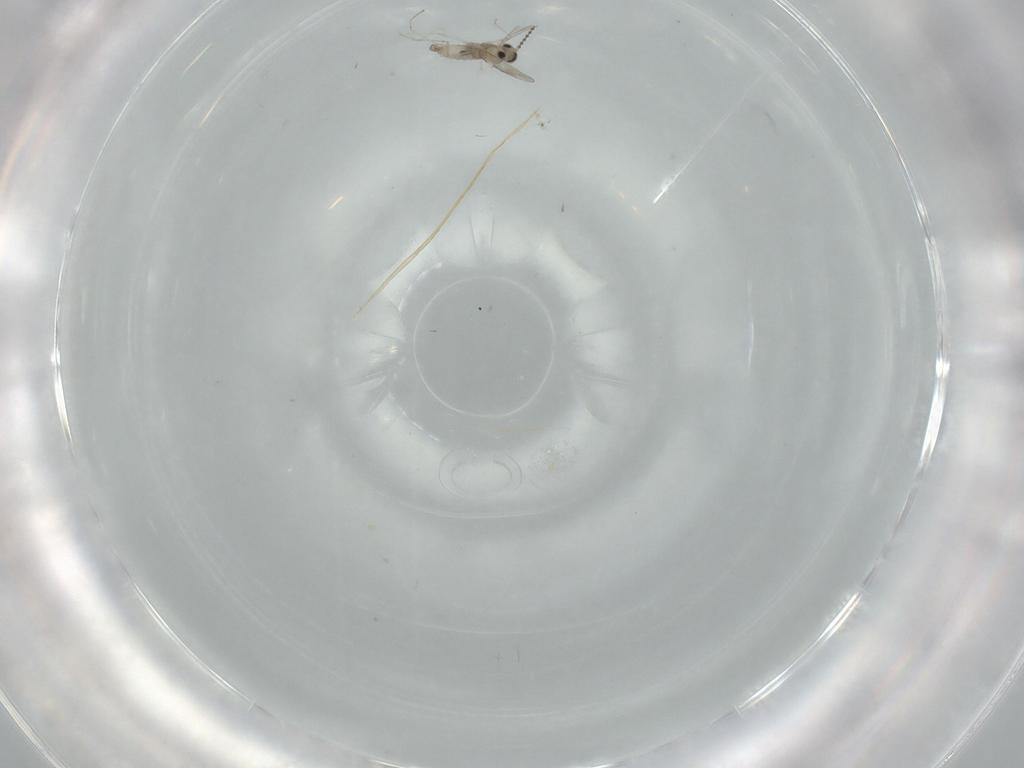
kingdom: Animalia
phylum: Arthropoda
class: Insecta
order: Diptera
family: Cecidomyiidae
